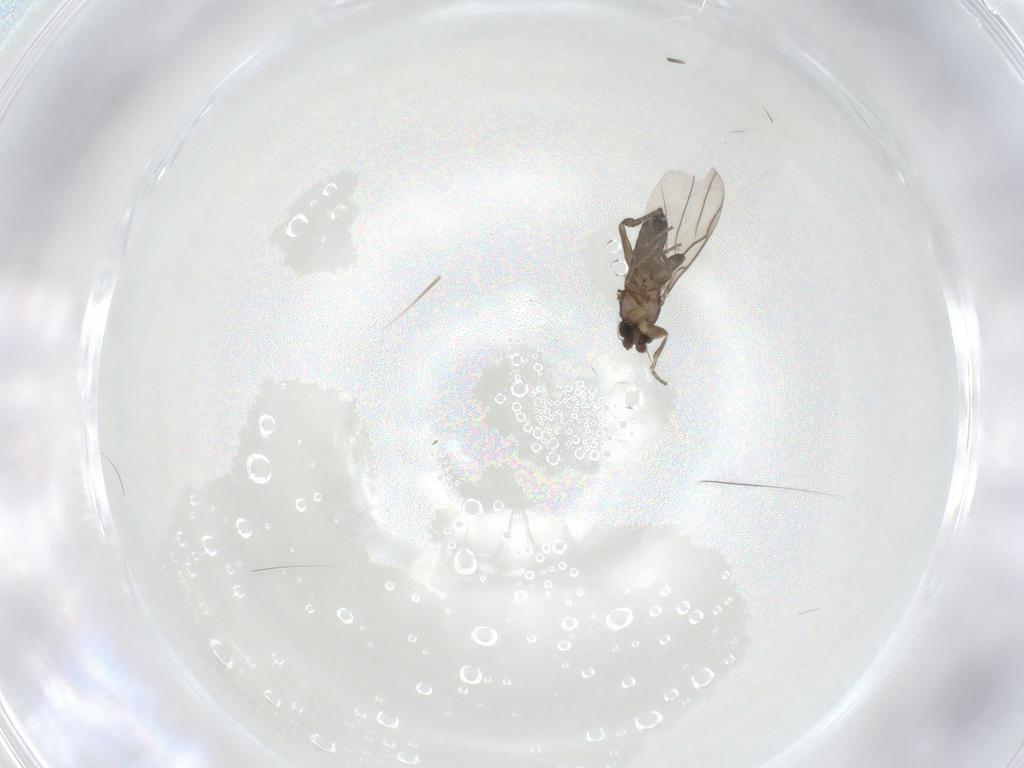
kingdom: Animalia
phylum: Arthropoda
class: Insecta
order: Diptera
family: Phoridae
